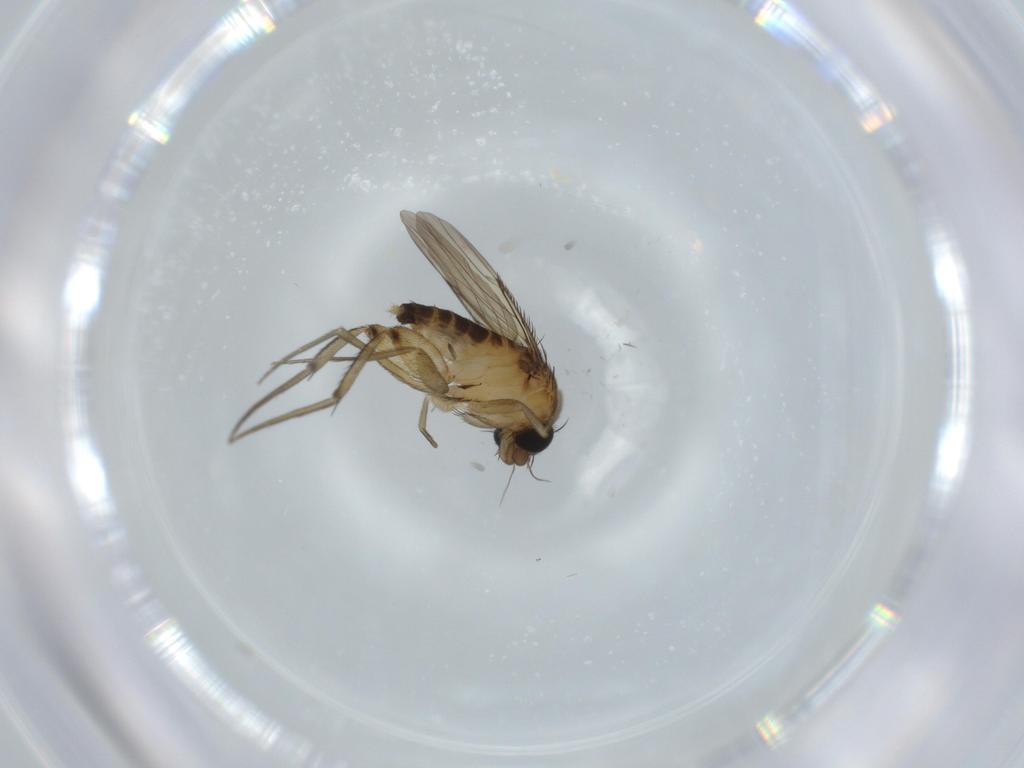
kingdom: Animalia
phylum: Arthropoda
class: Insecta
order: Diptera
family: Phoridae
